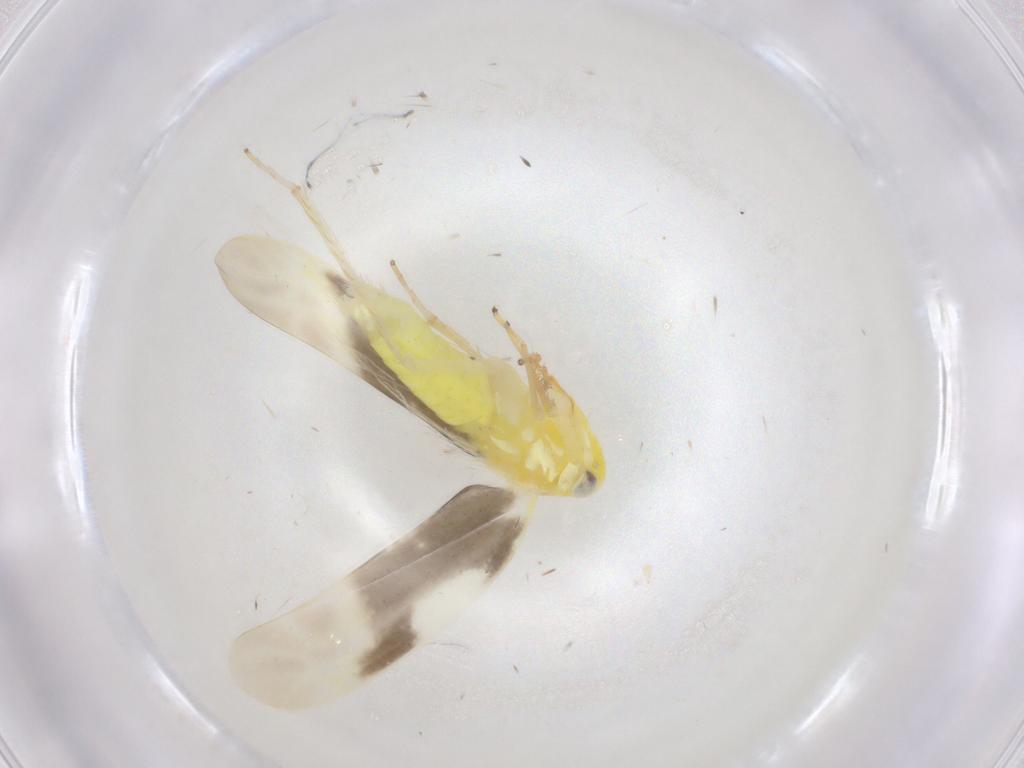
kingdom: Animalia
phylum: Arthropoda
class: Insecta
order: Hemiptera
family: Cicadellidae
